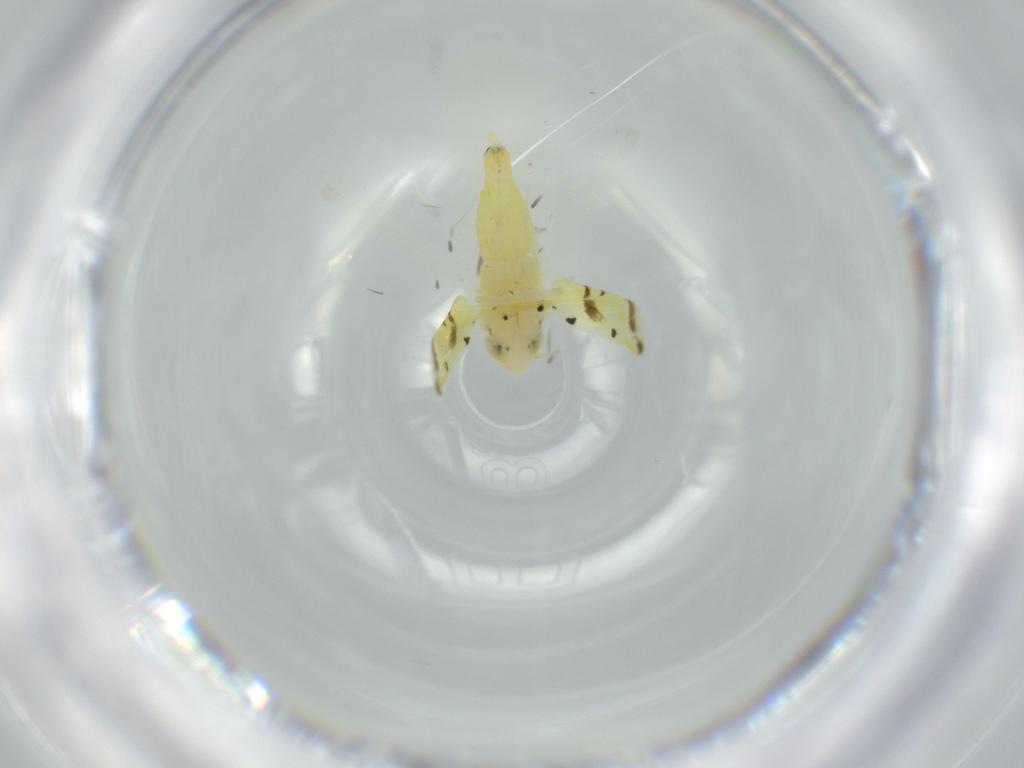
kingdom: Animalia
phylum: Arthropoda
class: Insecta
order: Hemiptera
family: Cicadellidae
